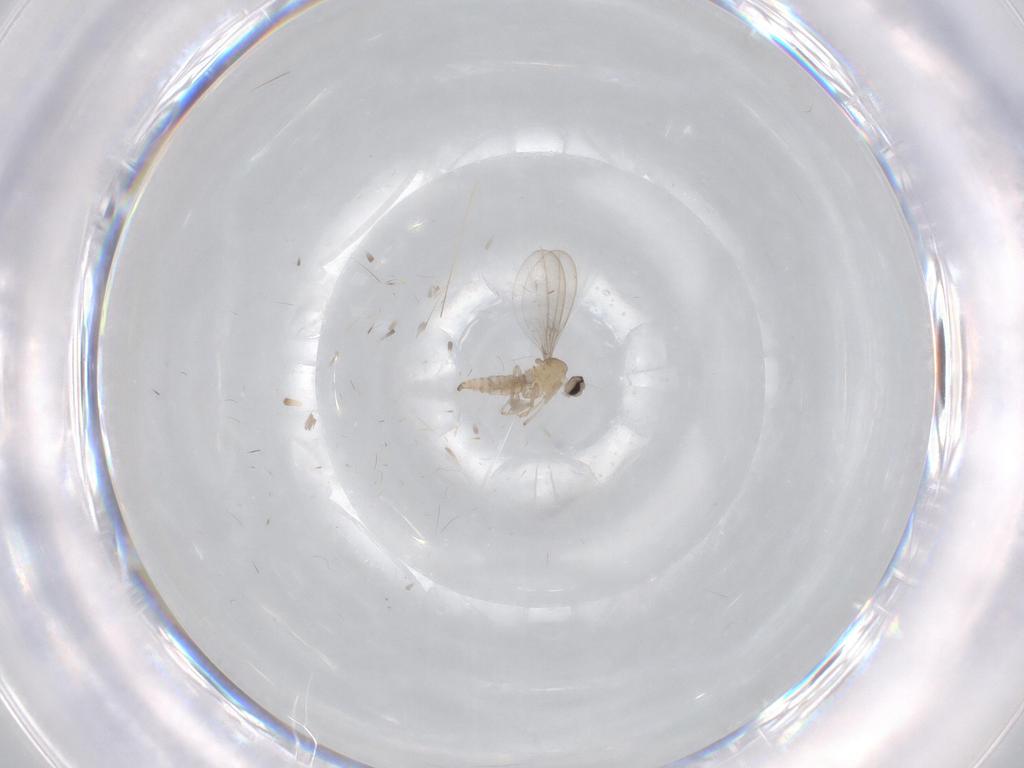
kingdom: Animalia
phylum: Arthropoda
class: Insecta
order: Diptera
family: Cecidomyiidae
